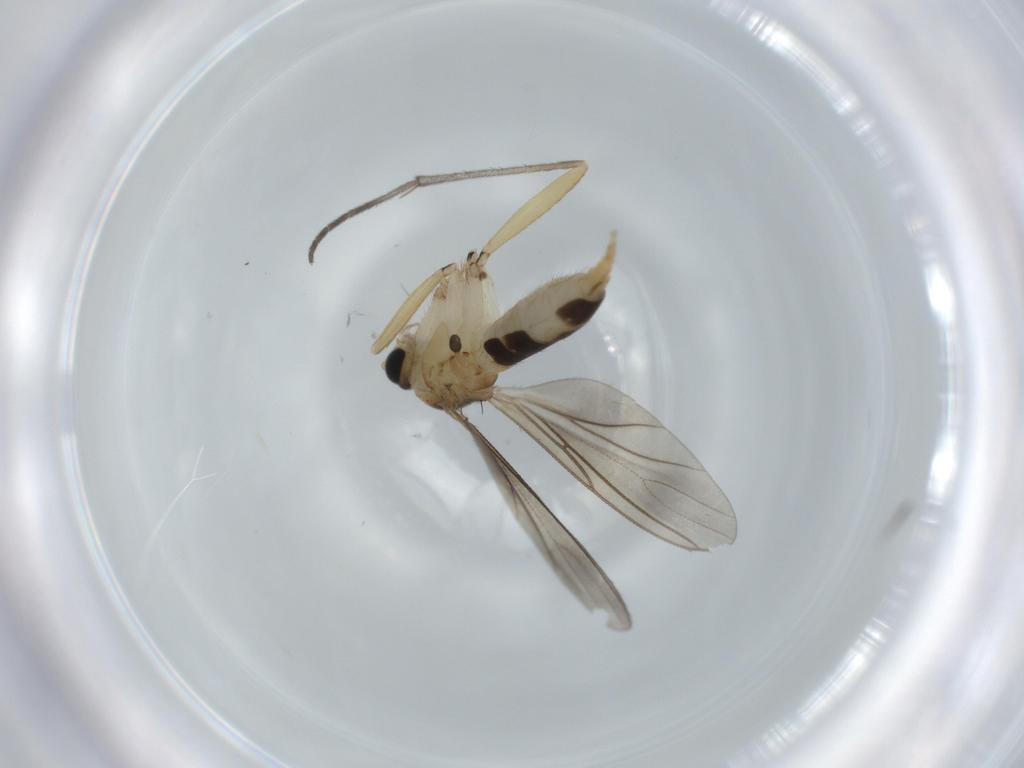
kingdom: Animalia
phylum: Arthropoda
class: Insecta
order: Diptera
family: Sciaridae
